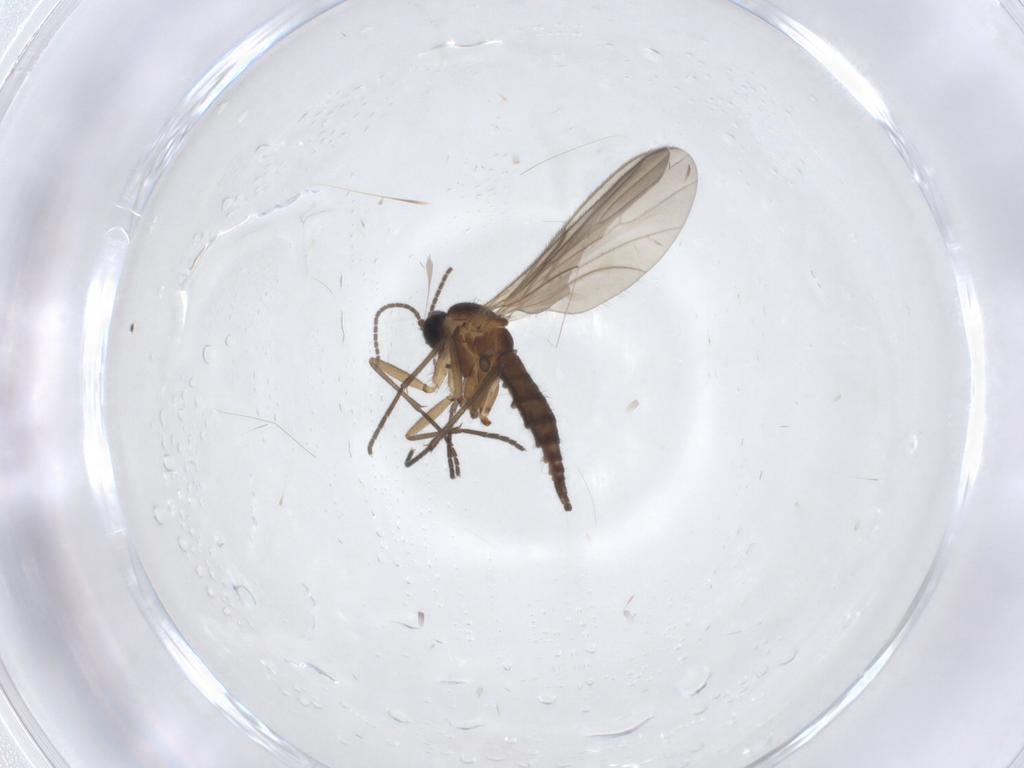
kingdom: Animalia
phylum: Arthropoda
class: Insecta
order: Diptera
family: Sciaridae
